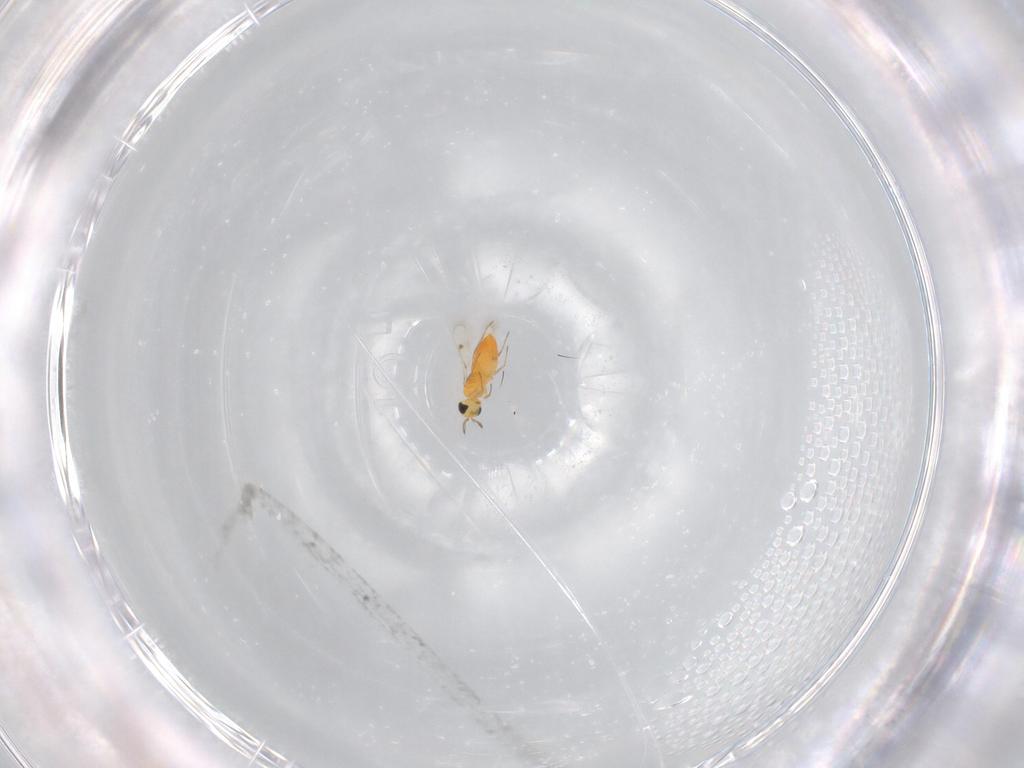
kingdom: Animalia
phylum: Arthropoda
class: Insecta
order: Hymenoptera
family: Trichogrammatidae
